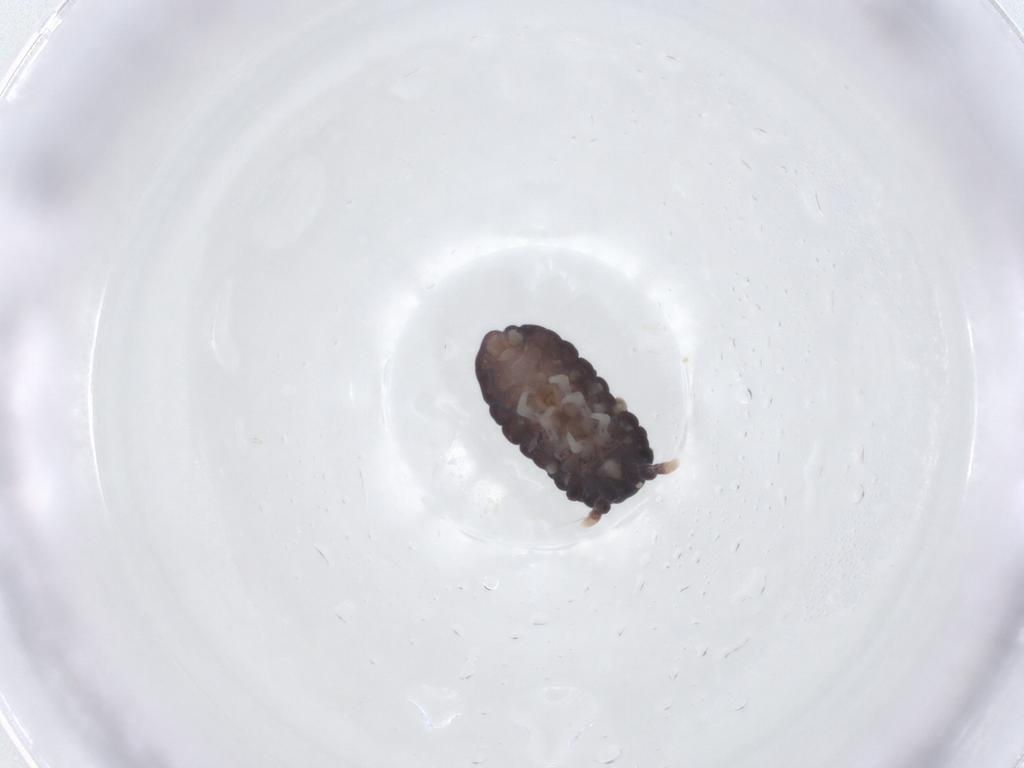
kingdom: Animalia
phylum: Arthropoda
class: Collembola
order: Poduromorpha
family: Neanuridae
